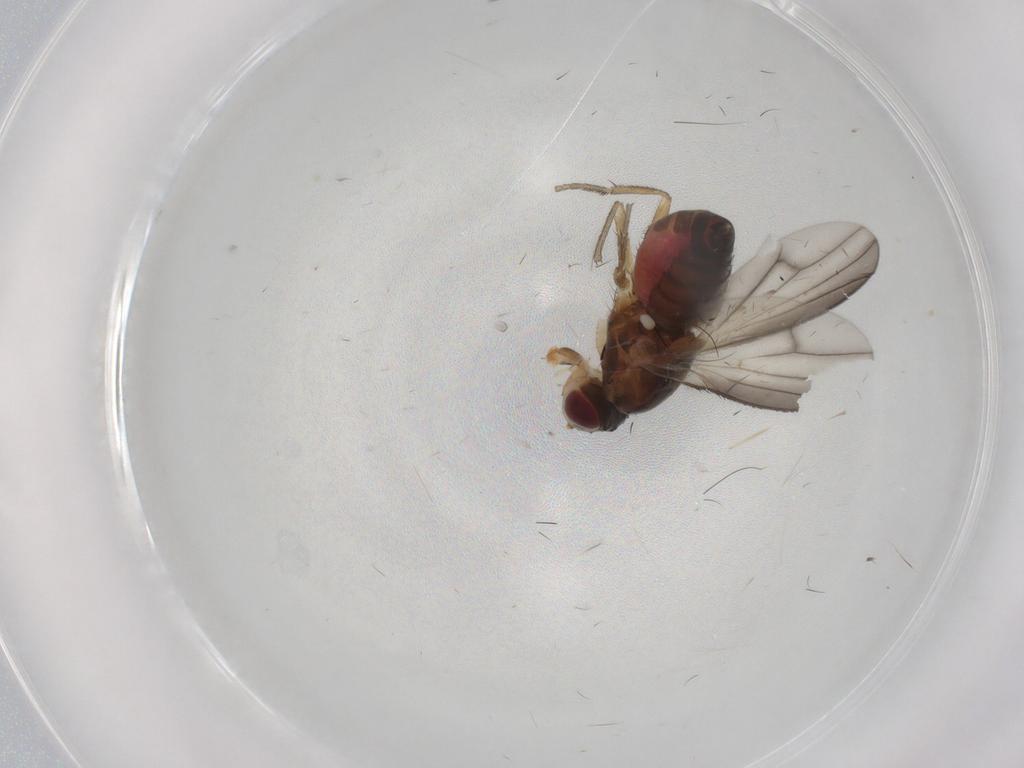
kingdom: Animalia
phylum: Arthropoda
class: Insecta
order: Diptera
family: Heleomyzidae
